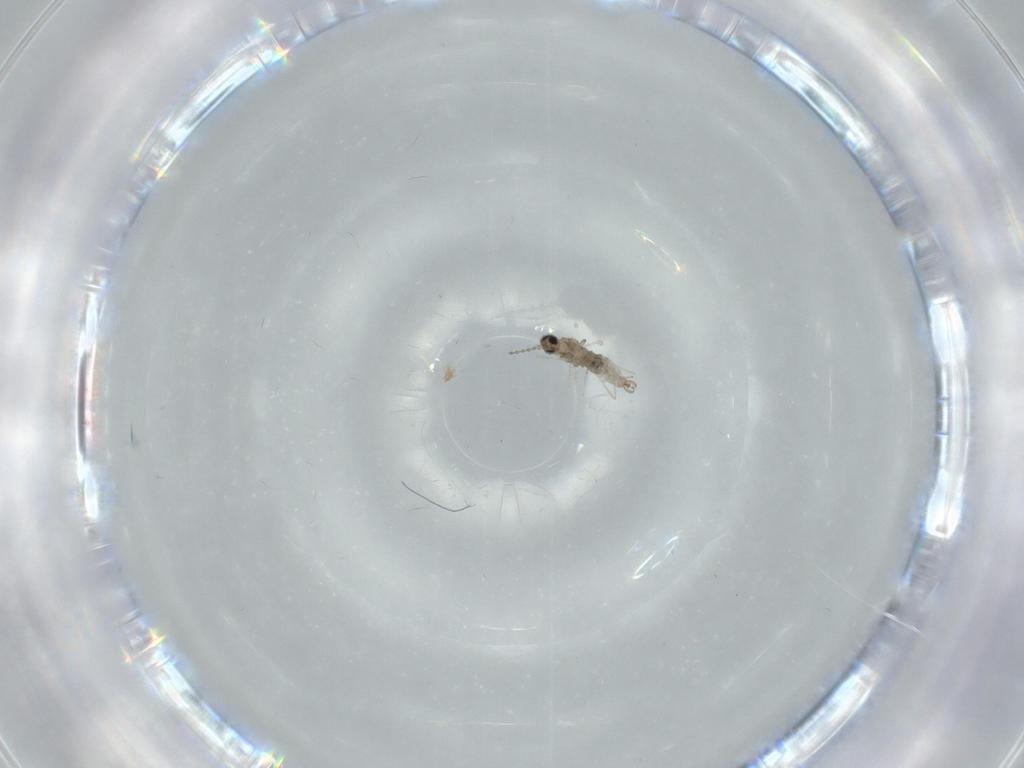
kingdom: Animalia
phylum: Arthropoda
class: Insecta
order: Diptera
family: Cecidomyiidae
